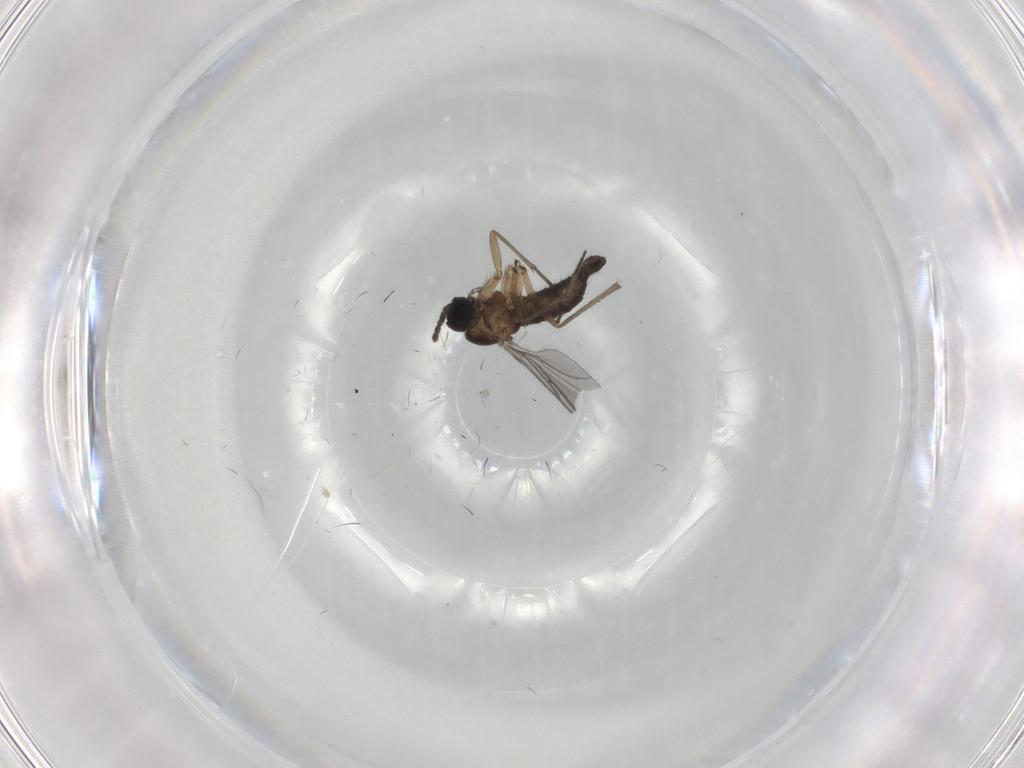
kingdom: Animalia
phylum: Arthropoda
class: Insecta
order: Diptera
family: Sciaridae
